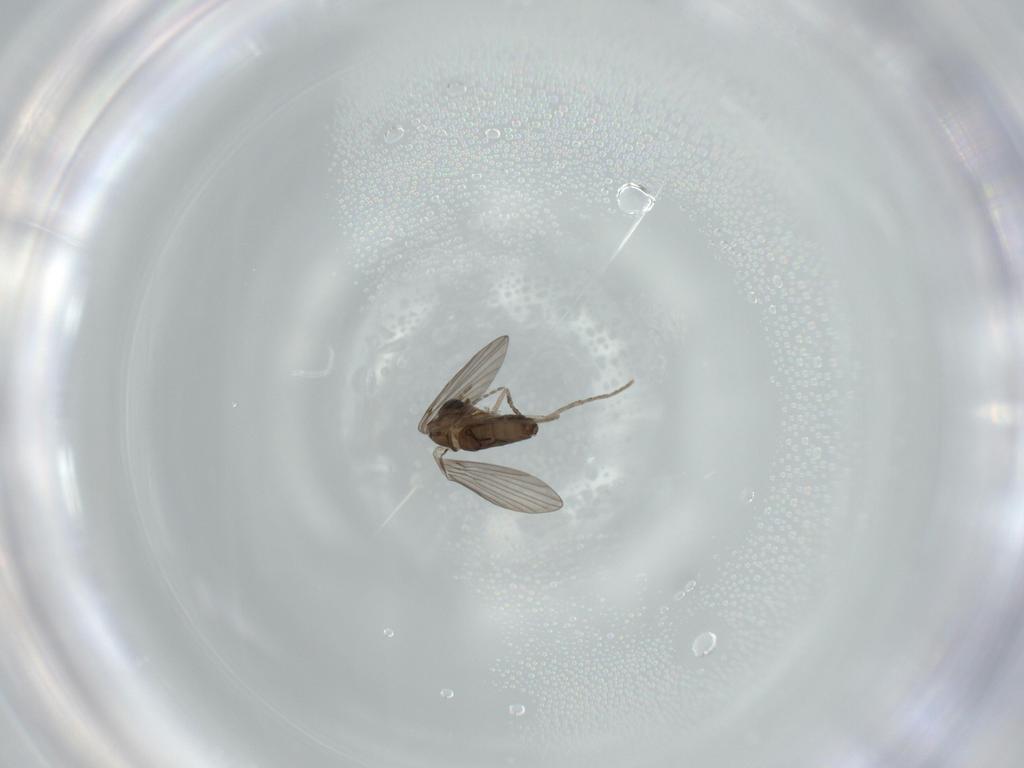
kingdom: Animalia
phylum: Arthropoda
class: Insecta
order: Diptera
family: Psychodidae
